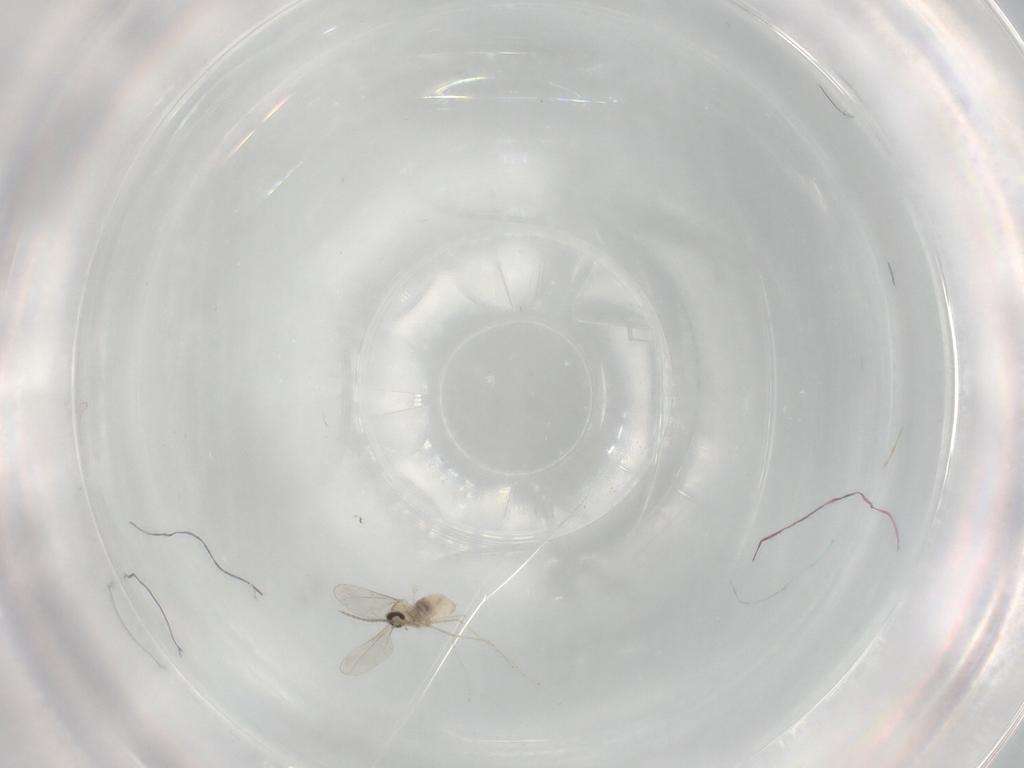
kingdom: Animalia
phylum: Arthropoda
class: Insecta
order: Diptera
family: Cecidomyiidae
